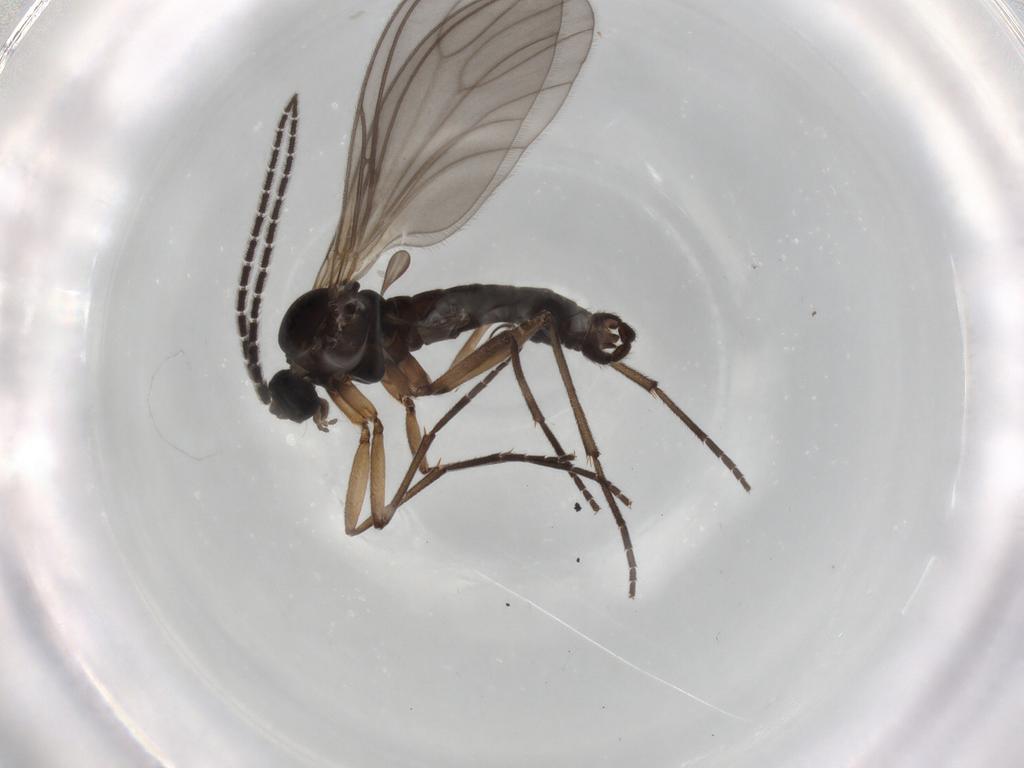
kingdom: Animalia
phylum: Arthropoda
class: Insecta
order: Diptera
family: Sciaridae
